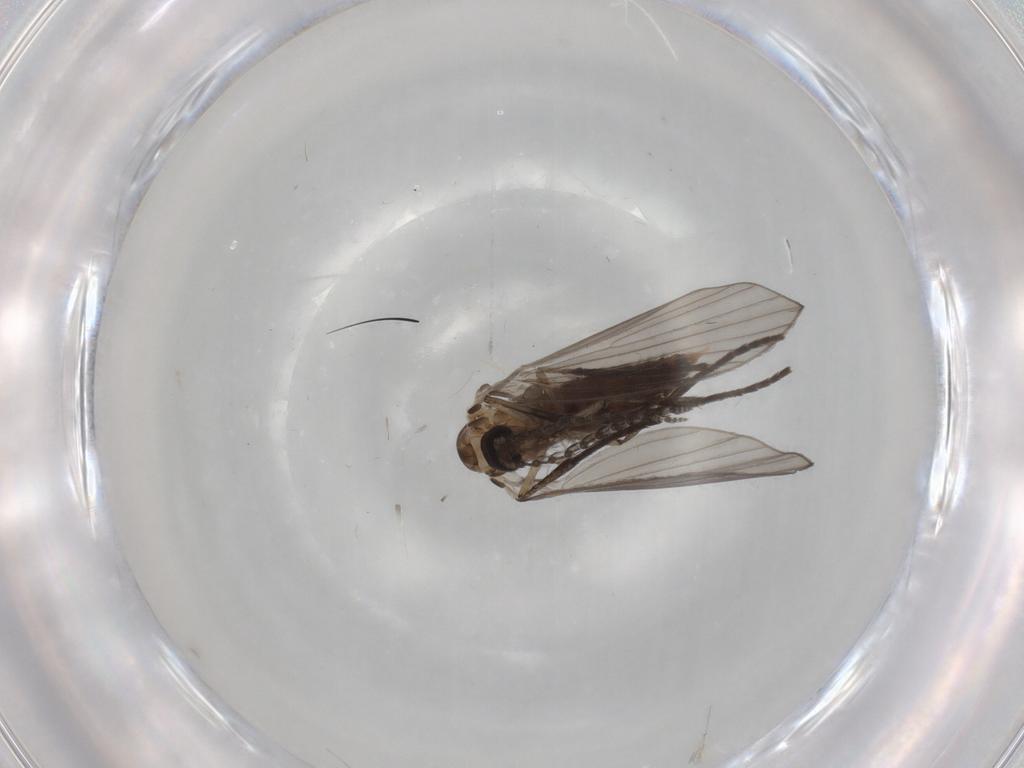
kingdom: Animalia
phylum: Arthropoda
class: Insecta
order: Diptera
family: Psychodidae
